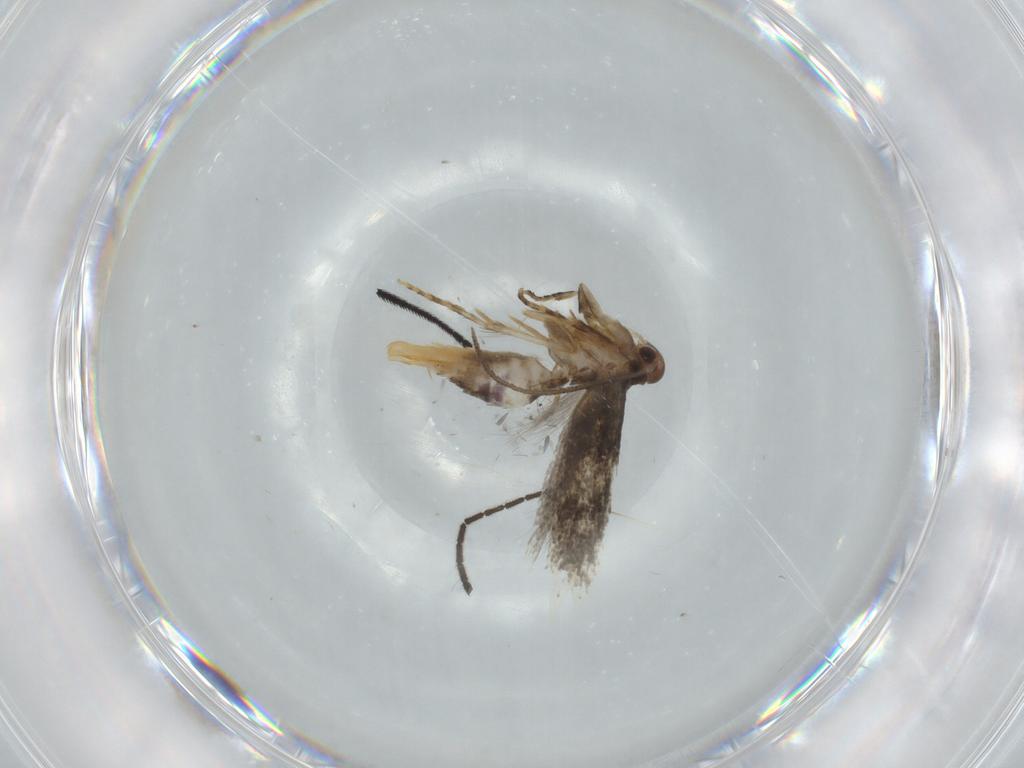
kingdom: Animalia
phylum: Arthropoda
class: Insecta
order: Lepidoptera
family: Elachistidae
